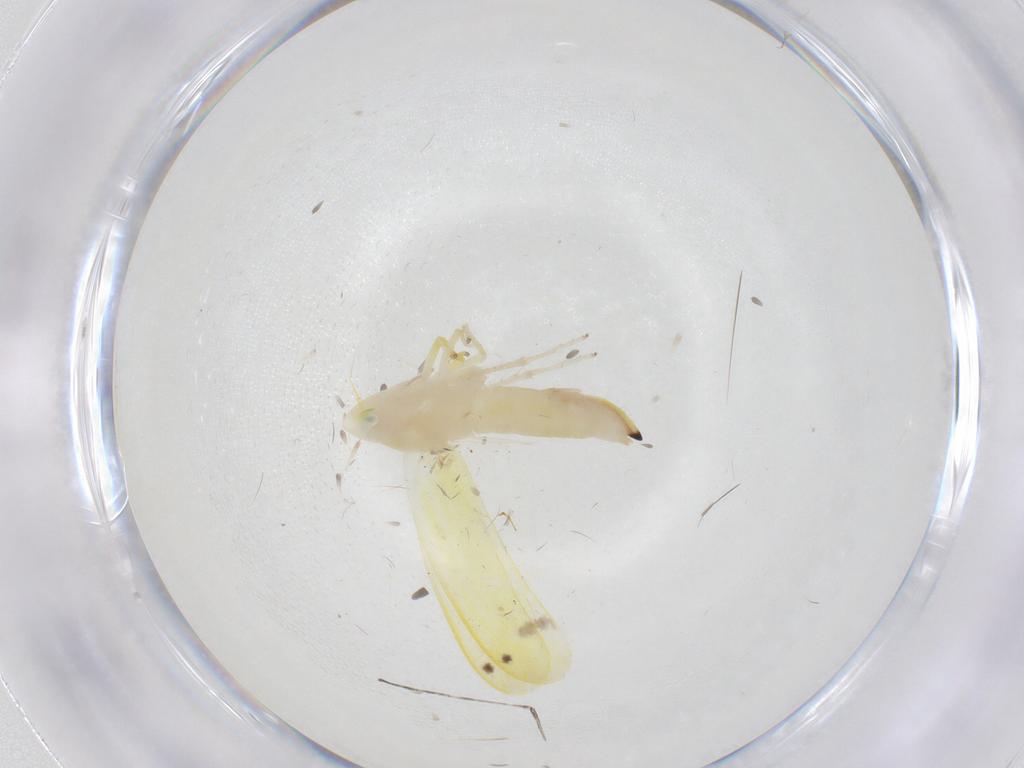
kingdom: Animalia
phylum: Arthropoda
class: Insecta
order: Hemiptera
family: Cicadellidae
